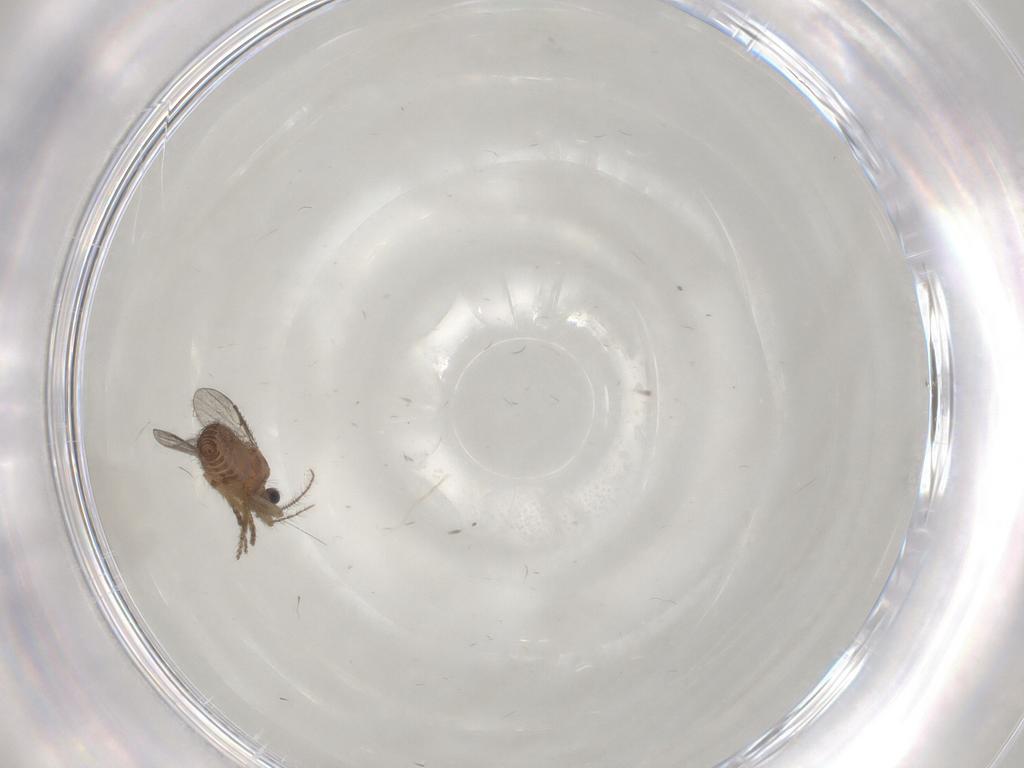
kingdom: Animalia
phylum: Arthropoda
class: Insecta
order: Diptera
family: Ceratopogonidae
